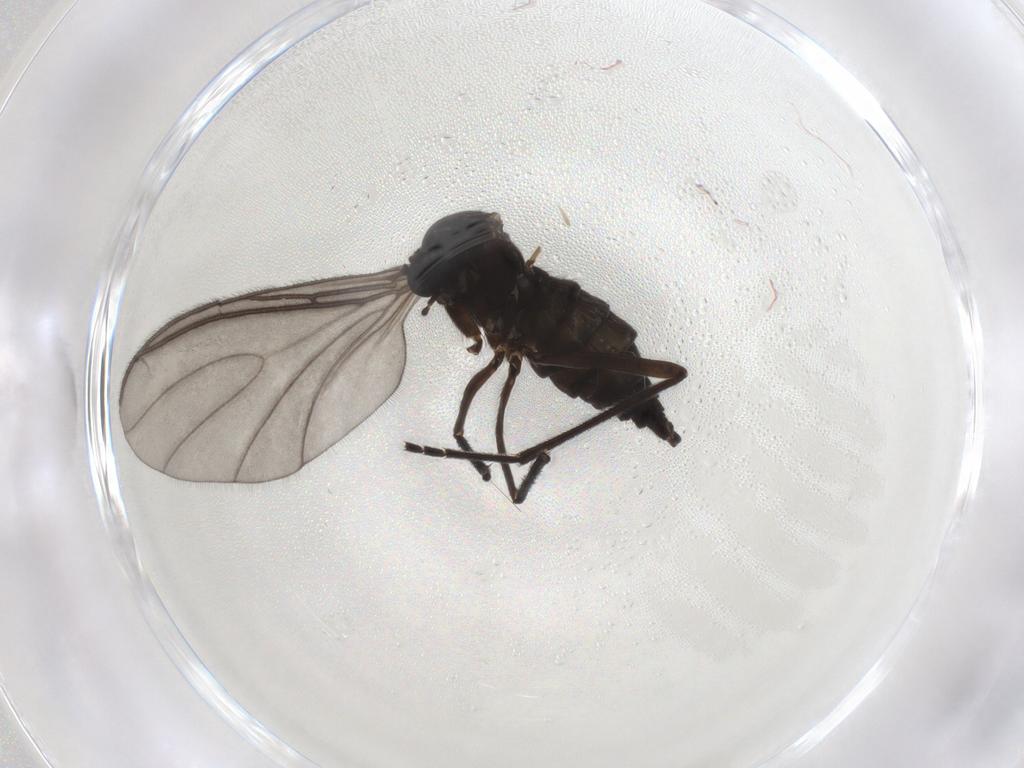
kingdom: Animalia
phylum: Arthropoda
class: Insecta
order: Diptera
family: Sciaridae
